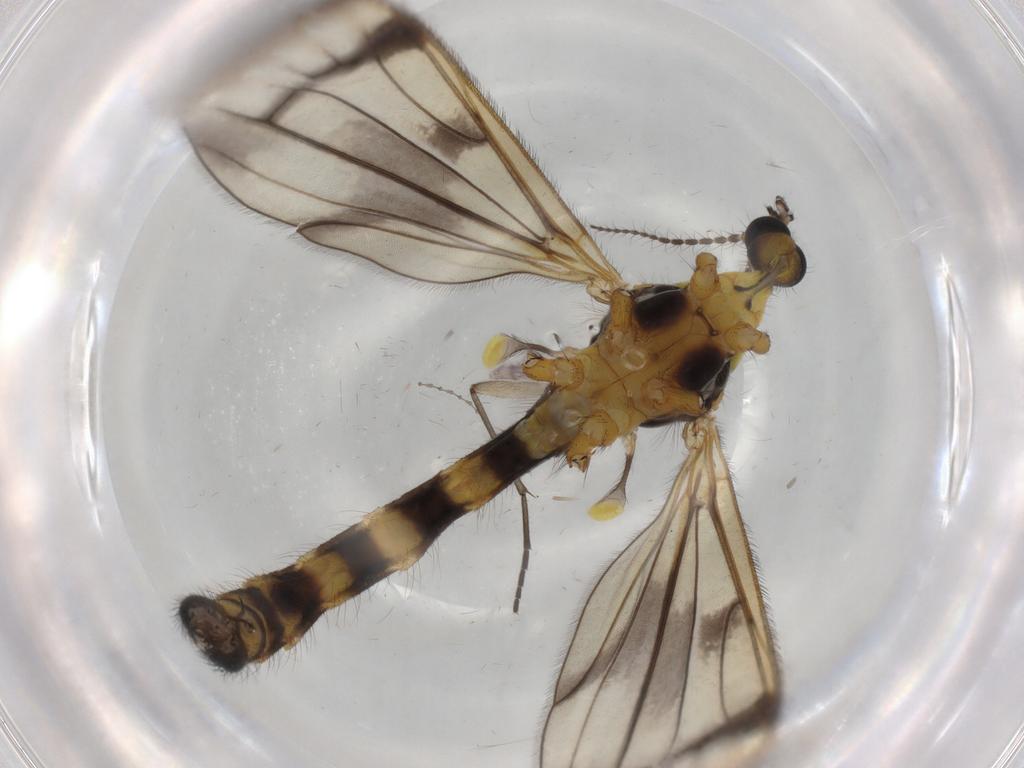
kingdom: Animalia
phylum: Arthropoda
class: Insecta
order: Diptera
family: Limoniidae
